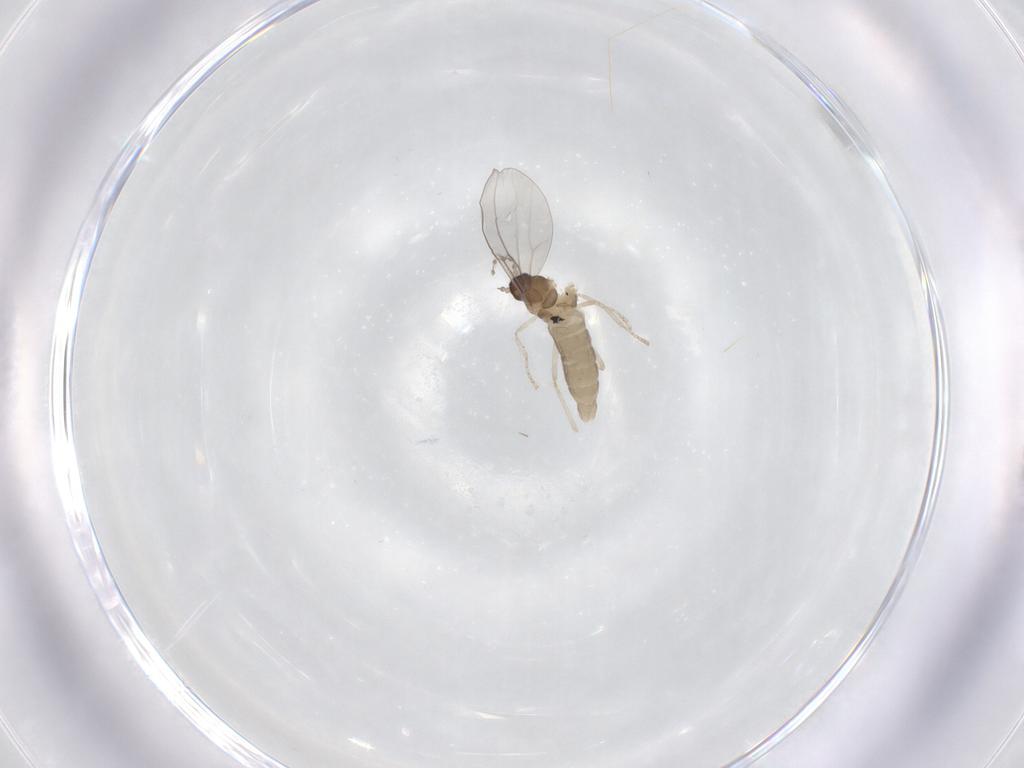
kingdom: Animalia
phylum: Arthropoda
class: Insecta
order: Diptera
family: Cecidomyiidae
